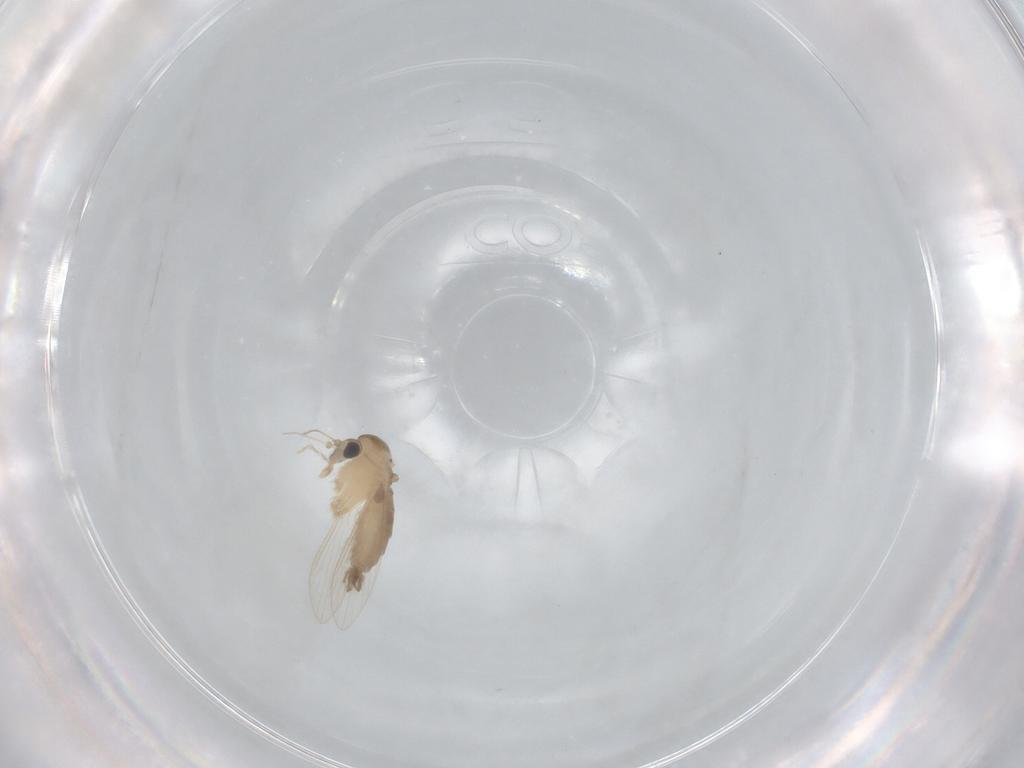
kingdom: Animalia
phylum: Arthropoda
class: Insecta
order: Diptera
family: Psychodidae
